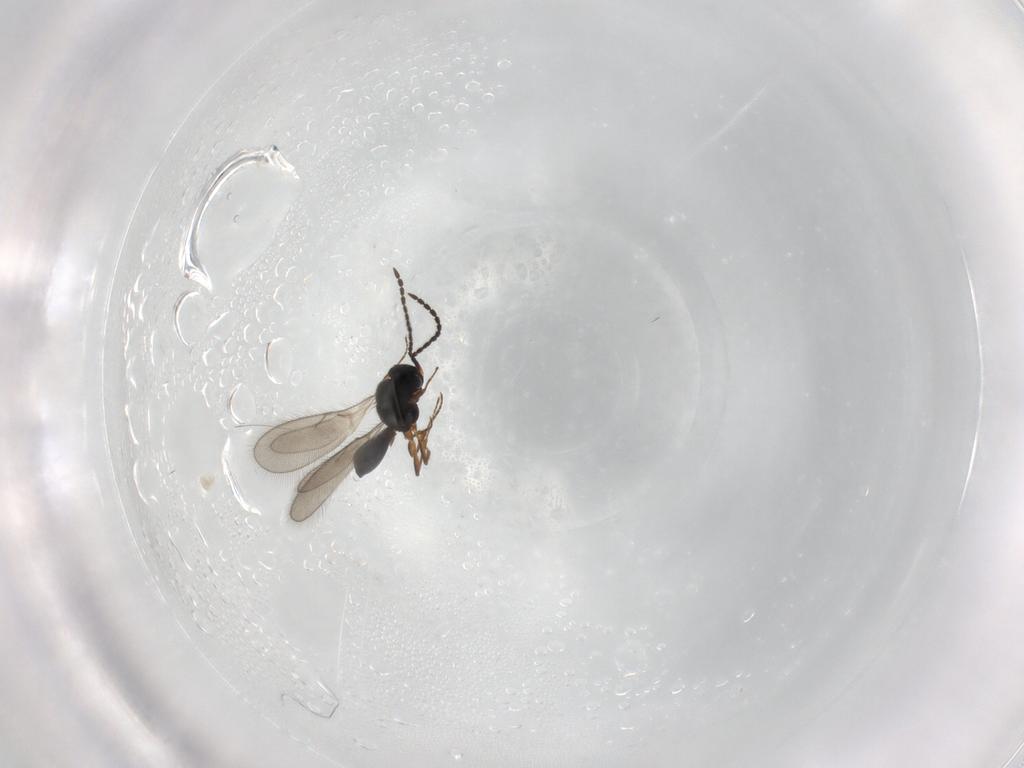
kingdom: Animalia
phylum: Arthropoda
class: Insecta
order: Hymenoptera
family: Scelionidae
